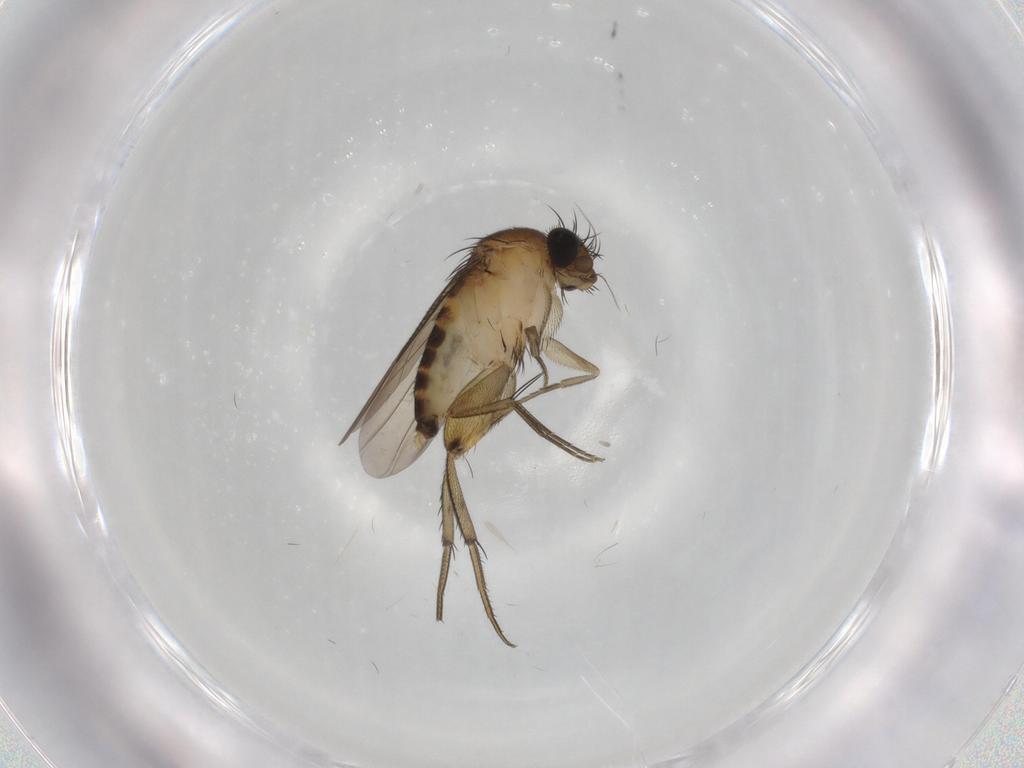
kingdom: Animalia
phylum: Arthropoda
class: Insecta
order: Diptera
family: Phoridae
